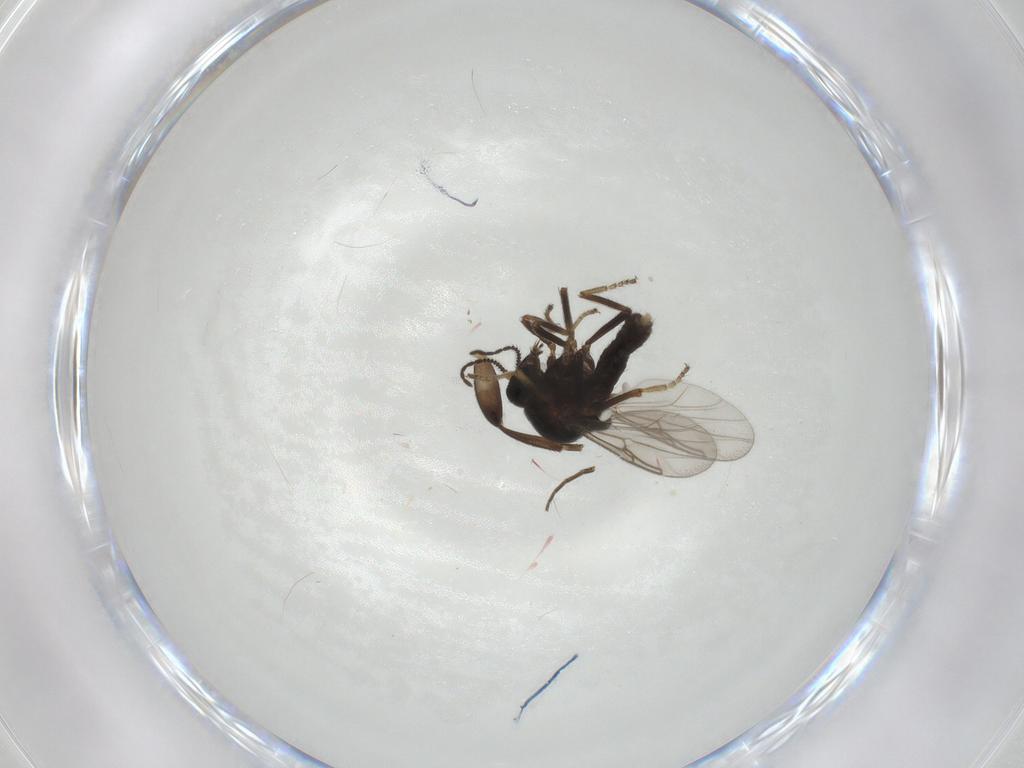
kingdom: Animalia
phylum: Arthropoda
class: Insecta
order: Diptera
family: Ceratopogonidae
